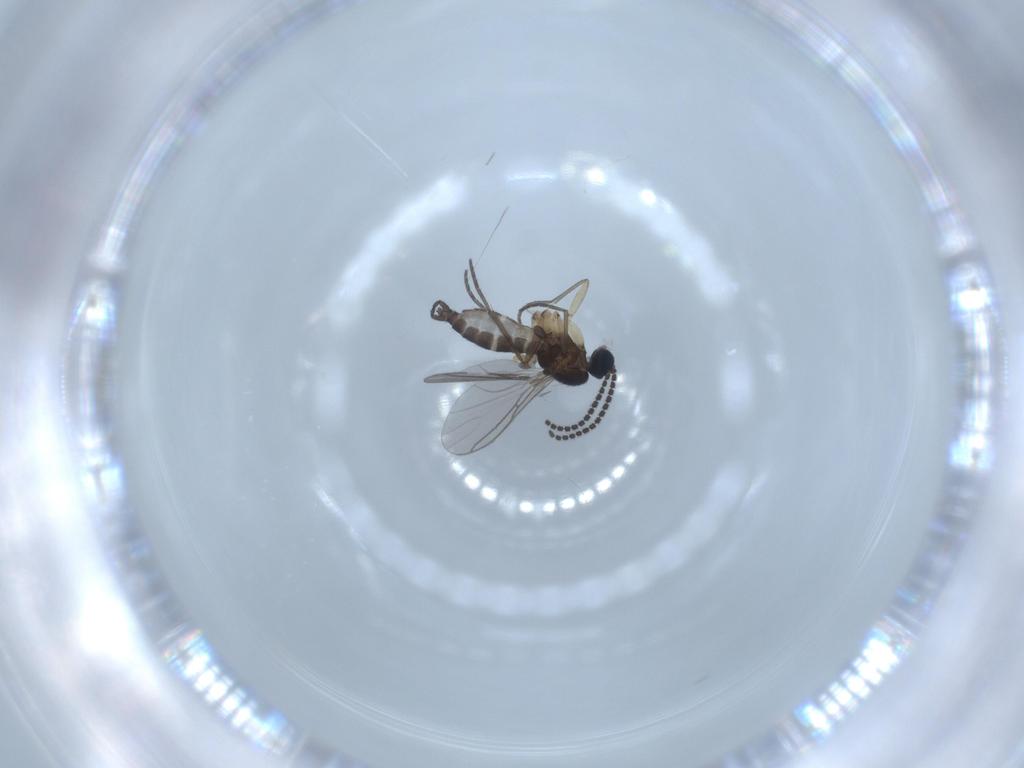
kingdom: Animalia
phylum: Arthropoda
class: Insecta
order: Diptera
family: Sciaridae
